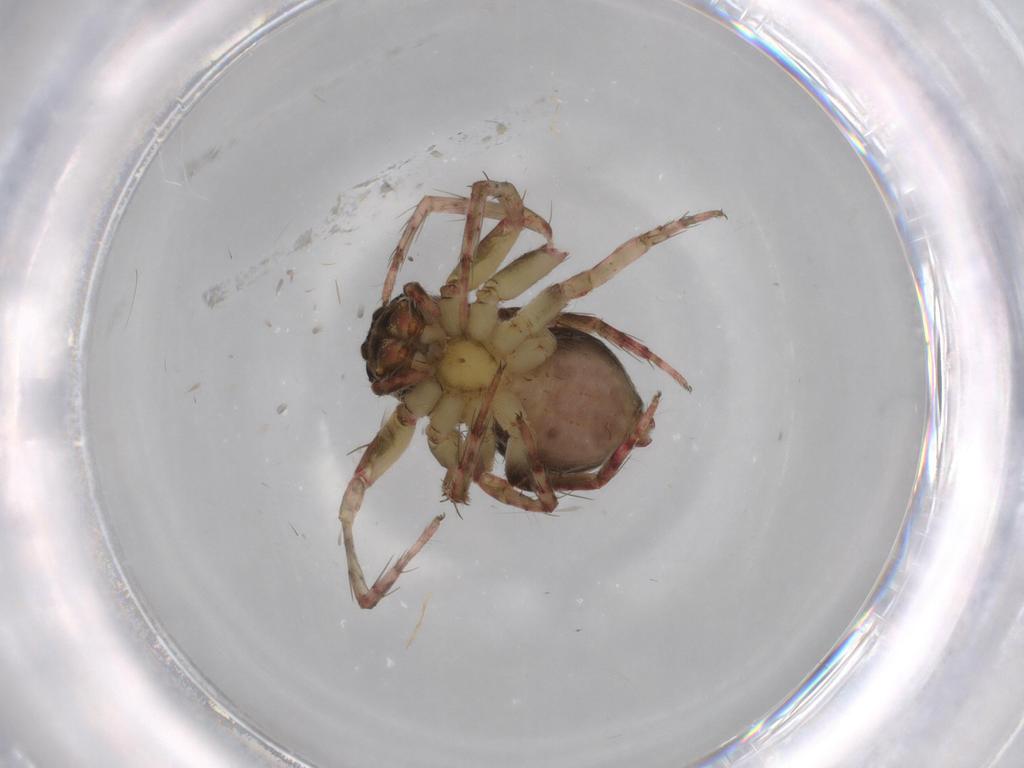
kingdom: Animalia
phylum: Arthropoda
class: Arachnida
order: Araneae
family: Oxyopidae
